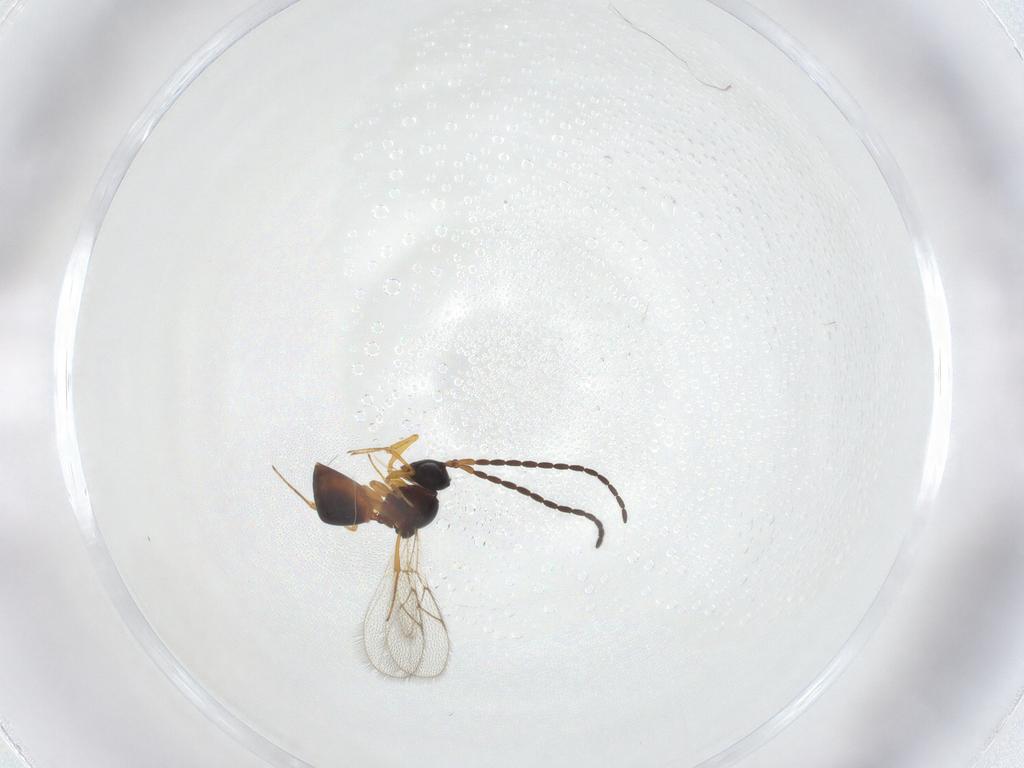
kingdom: Animalia
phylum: Arthropoda
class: Insecta
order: Hymenoptera
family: Figitidae
